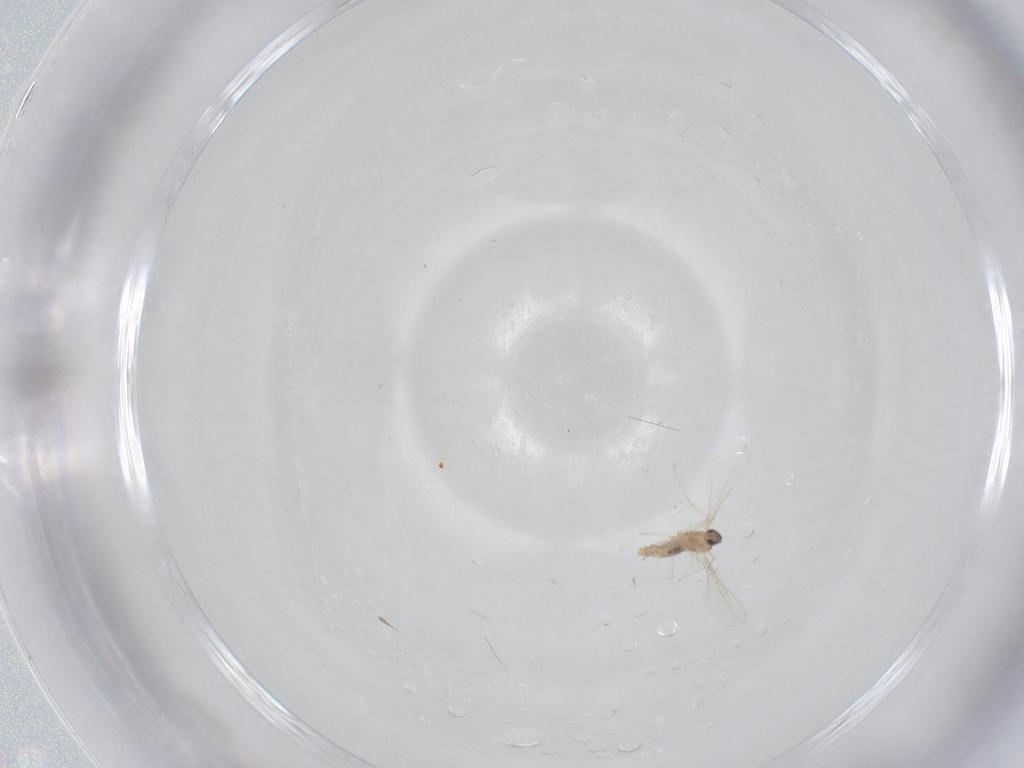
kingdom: Animalia
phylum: Arthropoda
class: Insecta
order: Diptera
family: Cecidomyiidae
